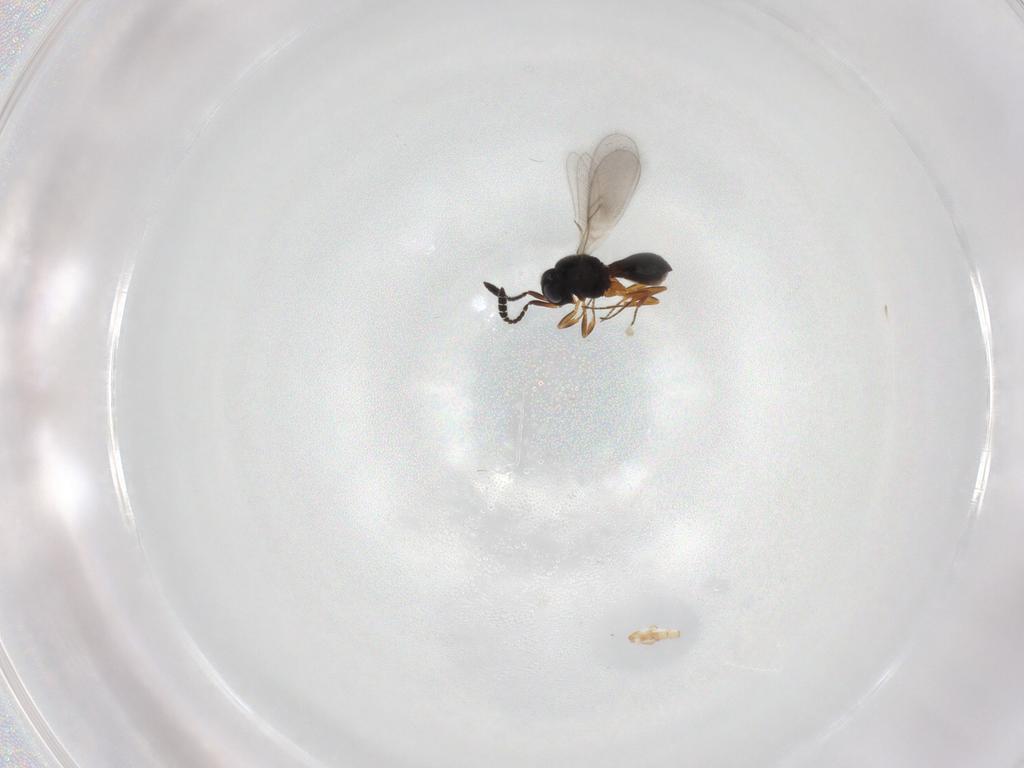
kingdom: Animalia
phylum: Arthropoda
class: Insecta
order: Hymenoptera
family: Scelionidae
